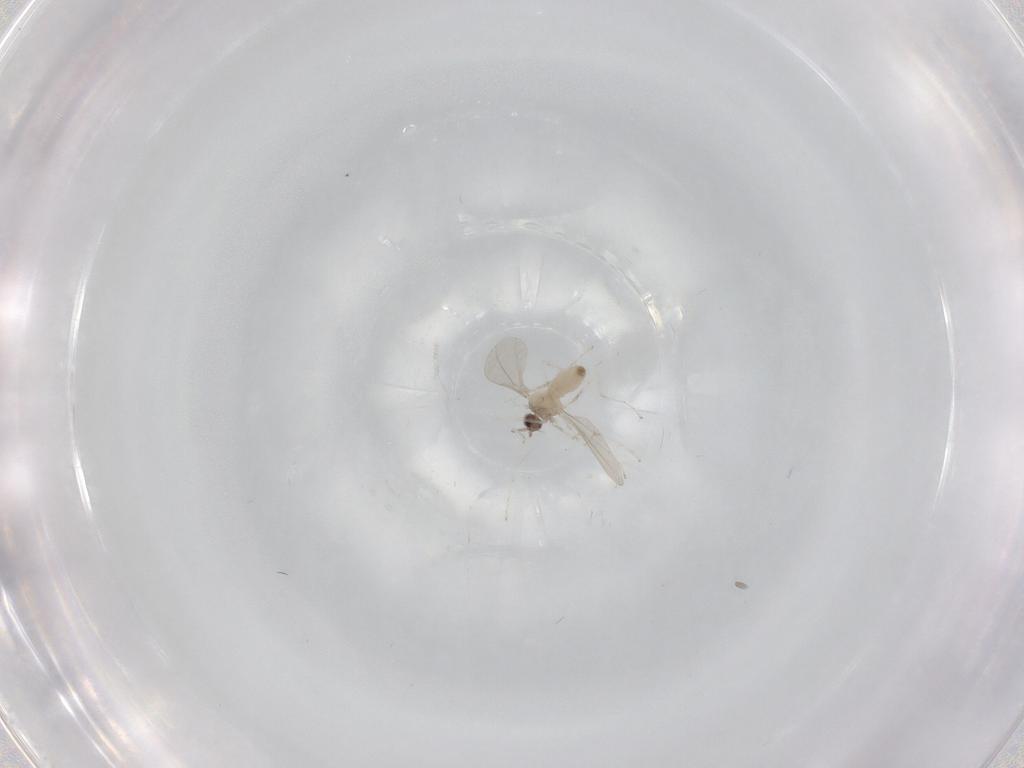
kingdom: Animalia
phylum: Arthropoda
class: Insecta
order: Diptera
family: Cecidomyiidae
